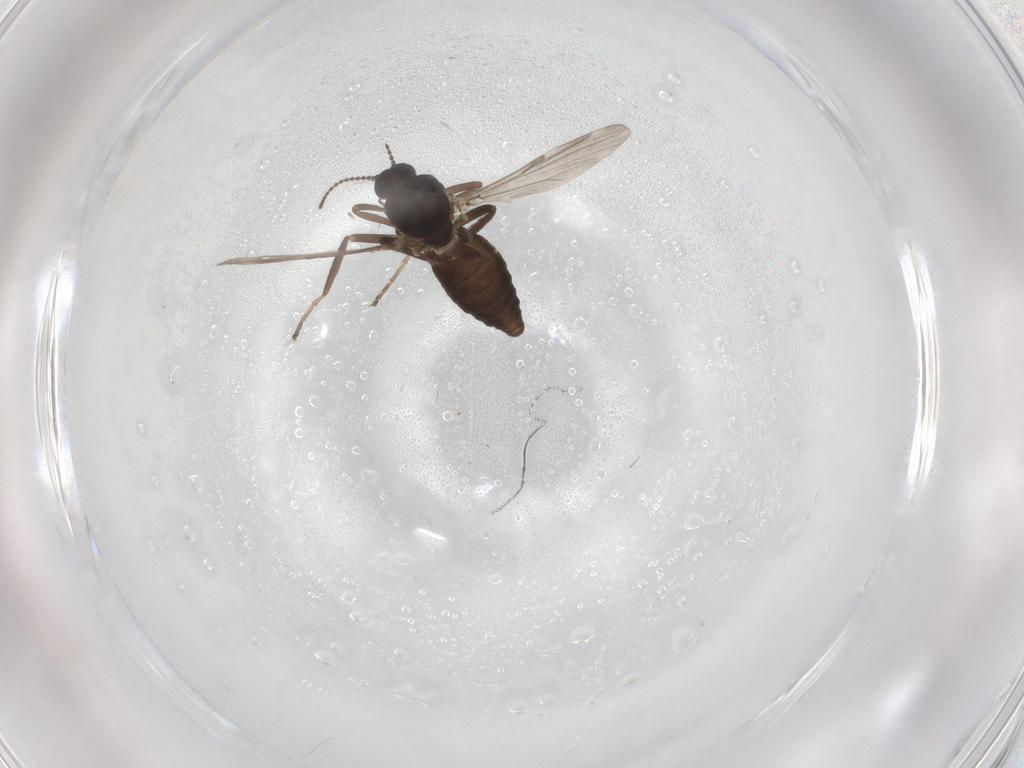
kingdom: Animalia
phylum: Arthropoda
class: Insecta
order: Diptera
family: Ceratopogonidae
